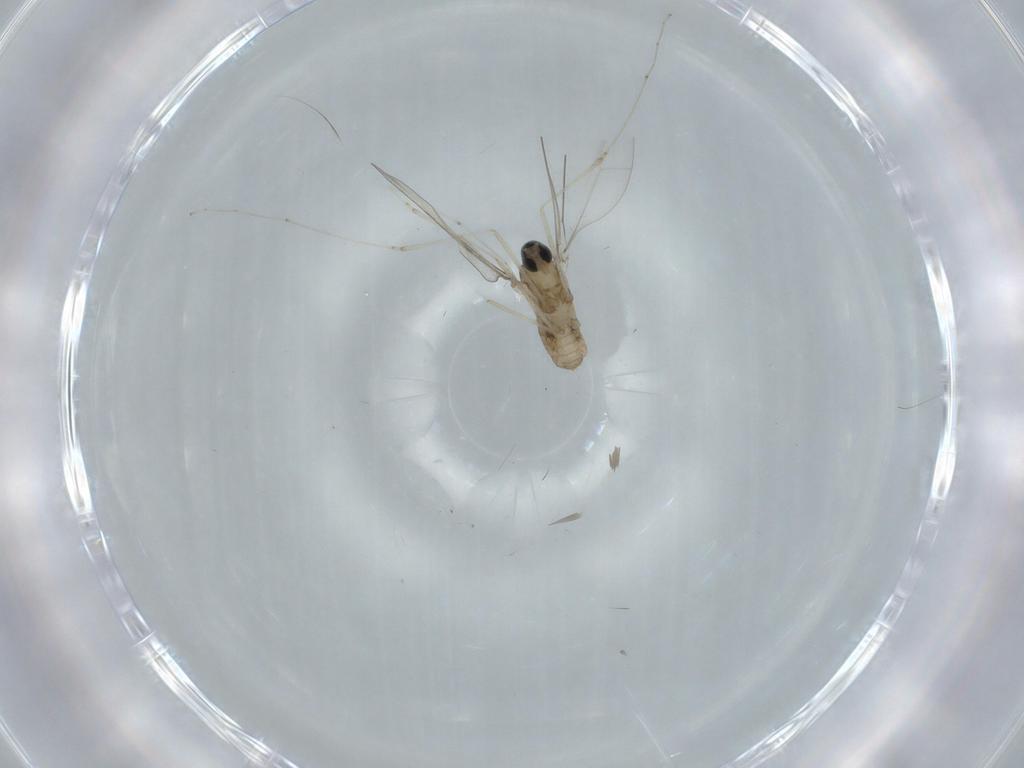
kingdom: Animalia
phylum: Arthropoda
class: Insecta
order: Diptera
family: Cecidomyiidae
